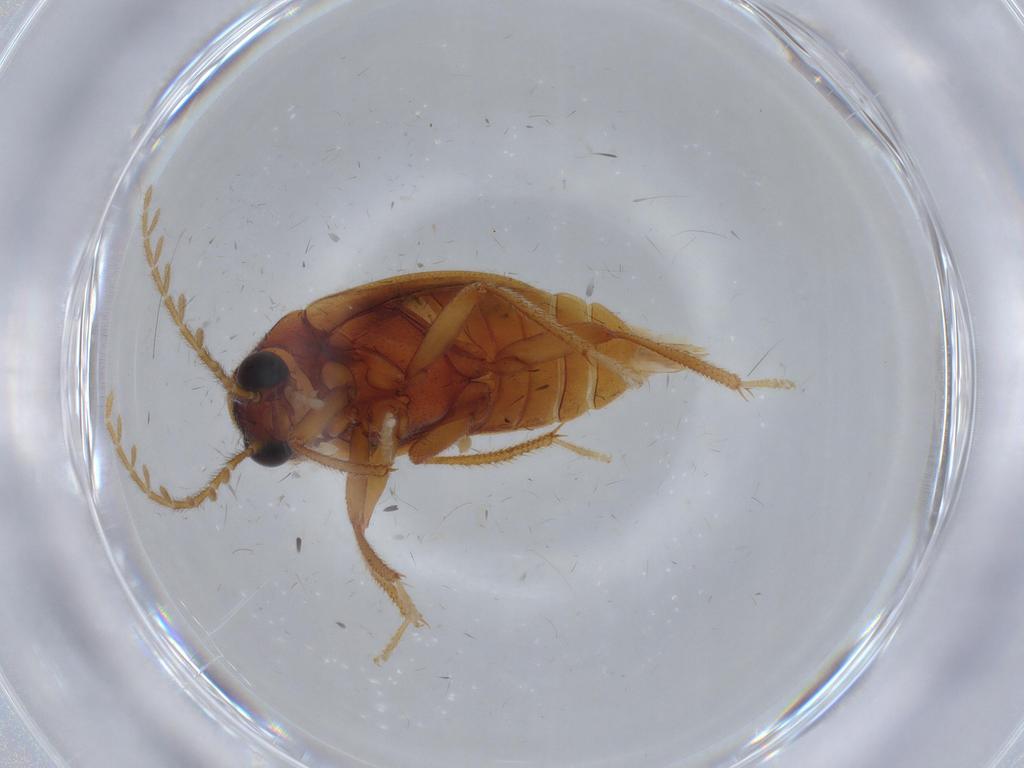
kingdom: Animalia
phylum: Arthropoda
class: Insecta
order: Coleoptera
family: Ptilodactylidae
